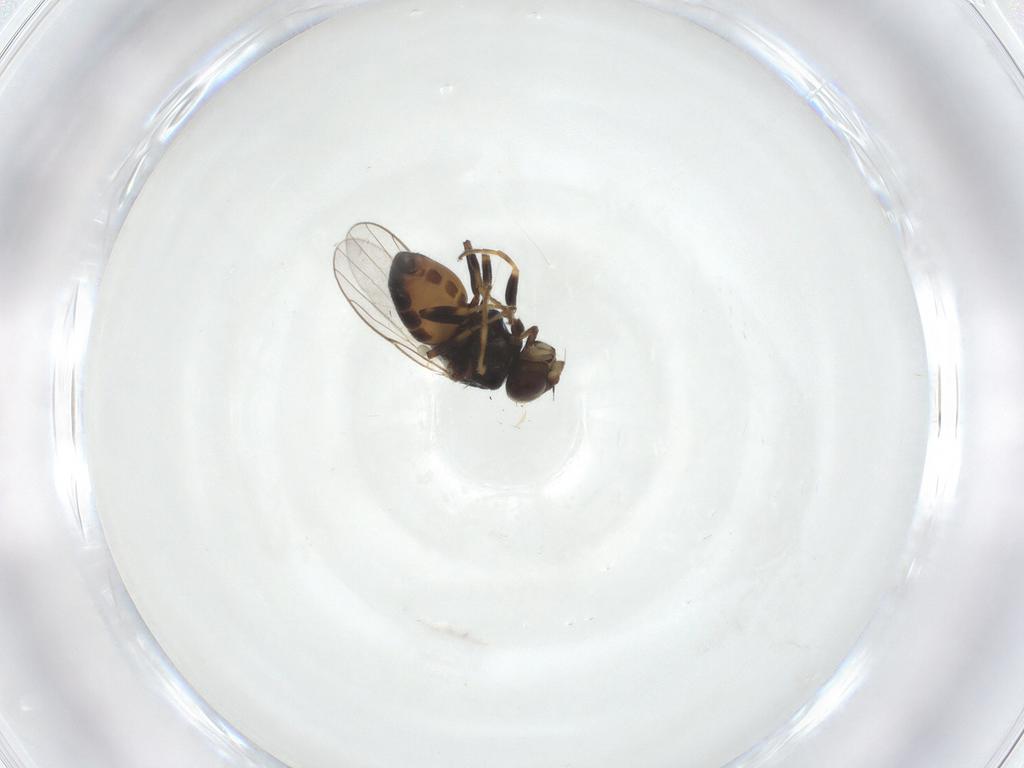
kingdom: Animalia
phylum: Arthropoda
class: Insecta
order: Diptera
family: Chloropidae
